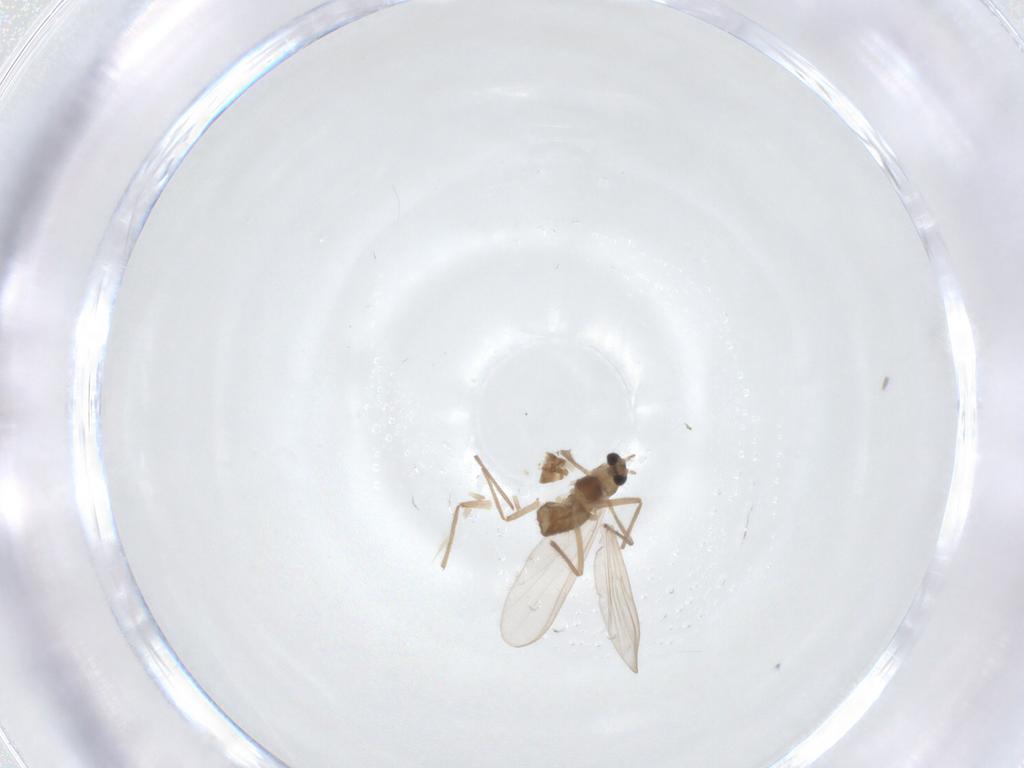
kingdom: Animalia
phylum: Arthropoda
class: Insecta
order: Diptera
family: Chironomidae
